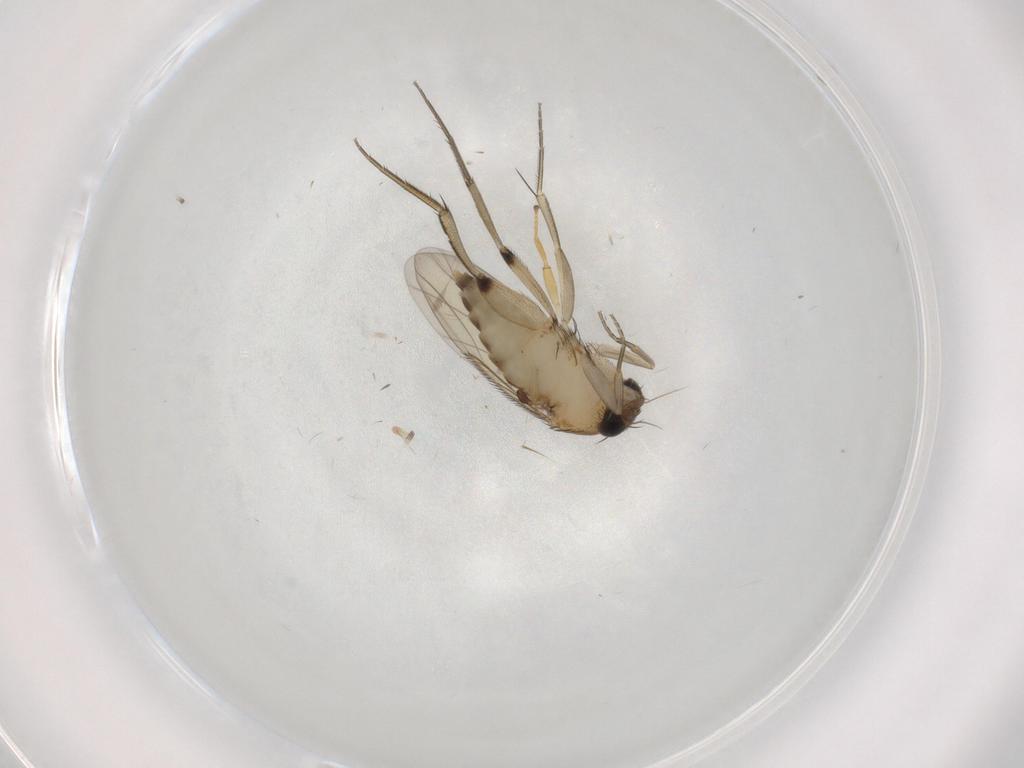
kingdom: Animalia
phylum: Arthropoda
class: Insecta
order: Diptera
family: Phoridae
